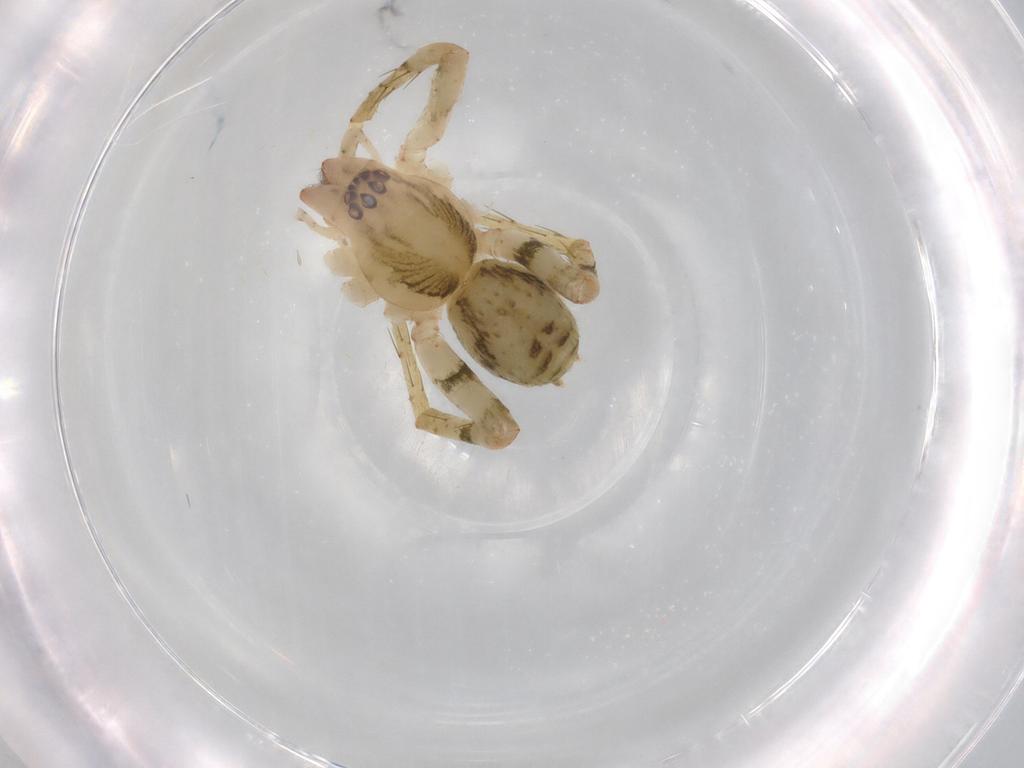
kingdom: Animalia
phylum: Arthropoda
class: Arachnida
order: Araneae
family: Anyphaenidae
